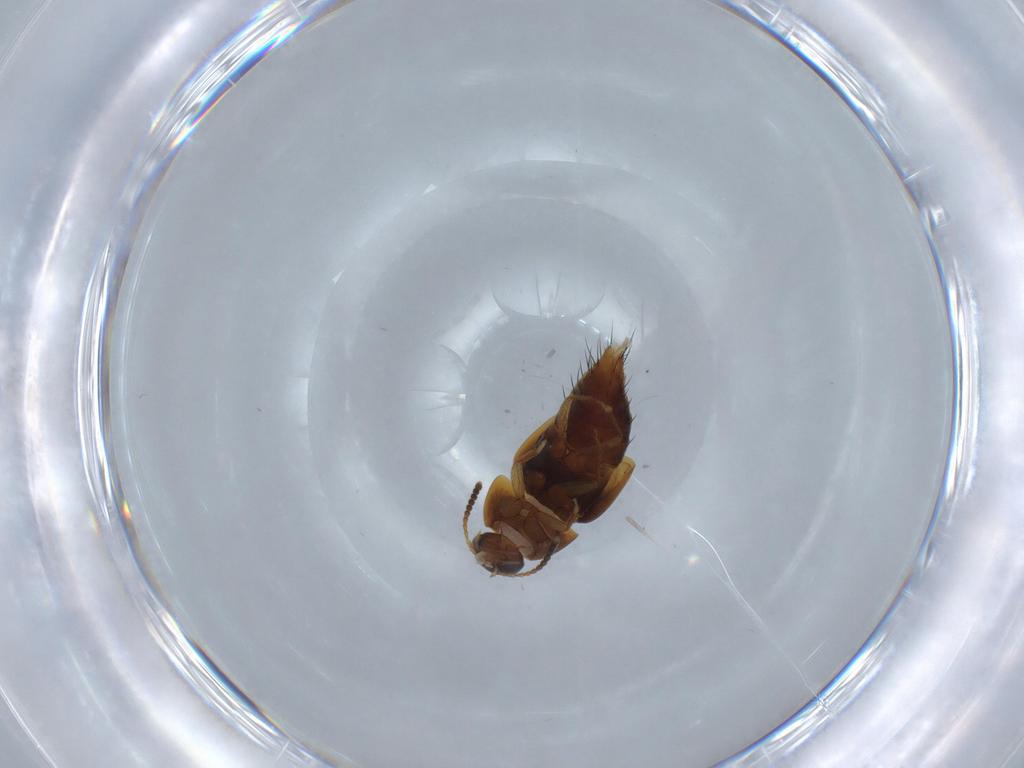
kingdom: Animalia
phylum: Arthropoda
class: Insecta
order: Coleoptera
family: Staphylinidae
